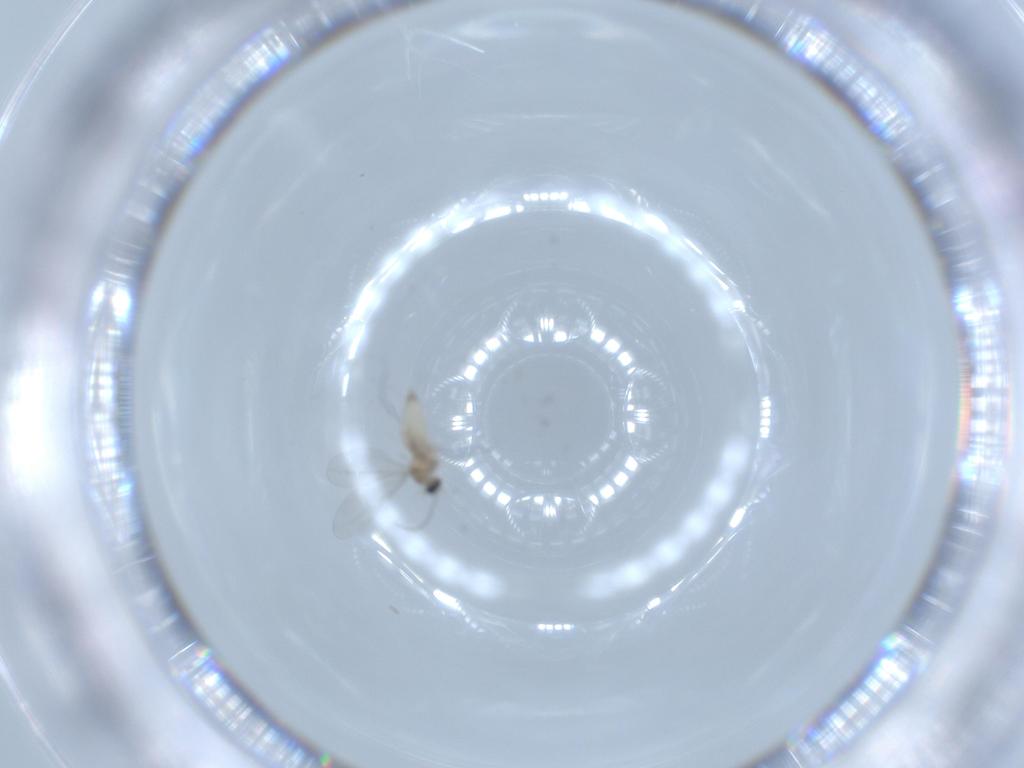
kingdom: Animalia
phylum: Arthropoda
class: Insecta
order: Diptera
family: Cecidomyiidae
